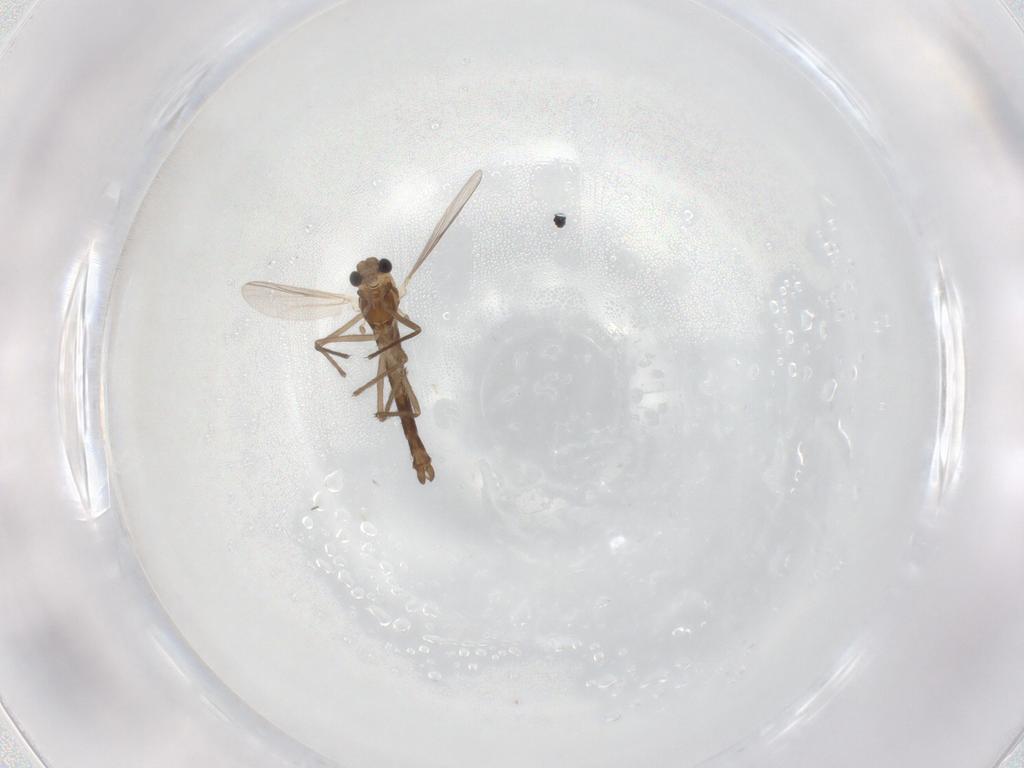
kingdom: Animalia
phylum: Arthropoda
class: Insecta
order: Diptera
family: Chironomidae
